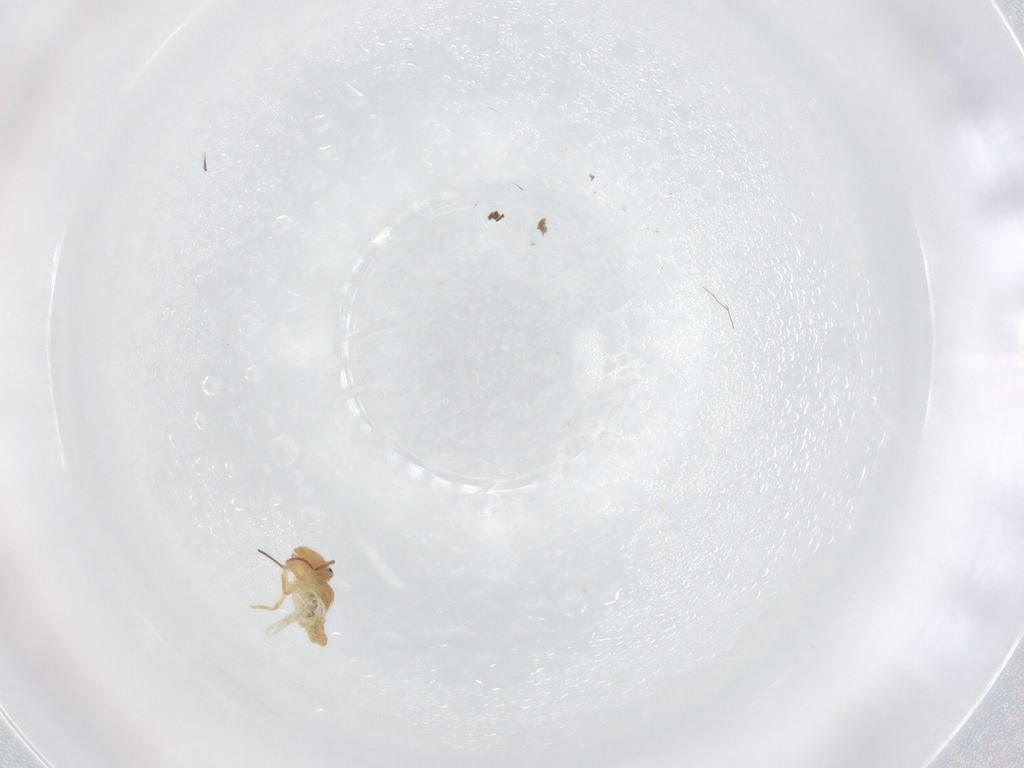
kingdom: Animalia
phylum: Arthropoda
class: Collembola
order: Symphypleona
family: Bourletiellidae
